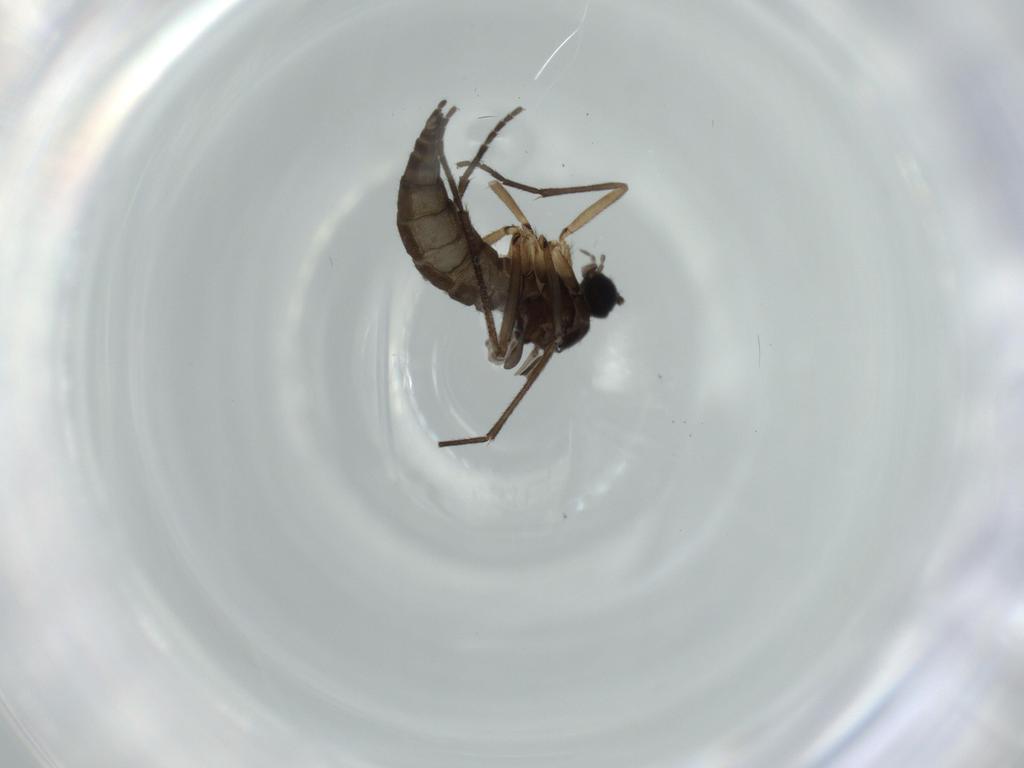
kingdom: Animalia
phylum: Arthropoda
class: Insecta
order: Diptera
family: Sciaridae
